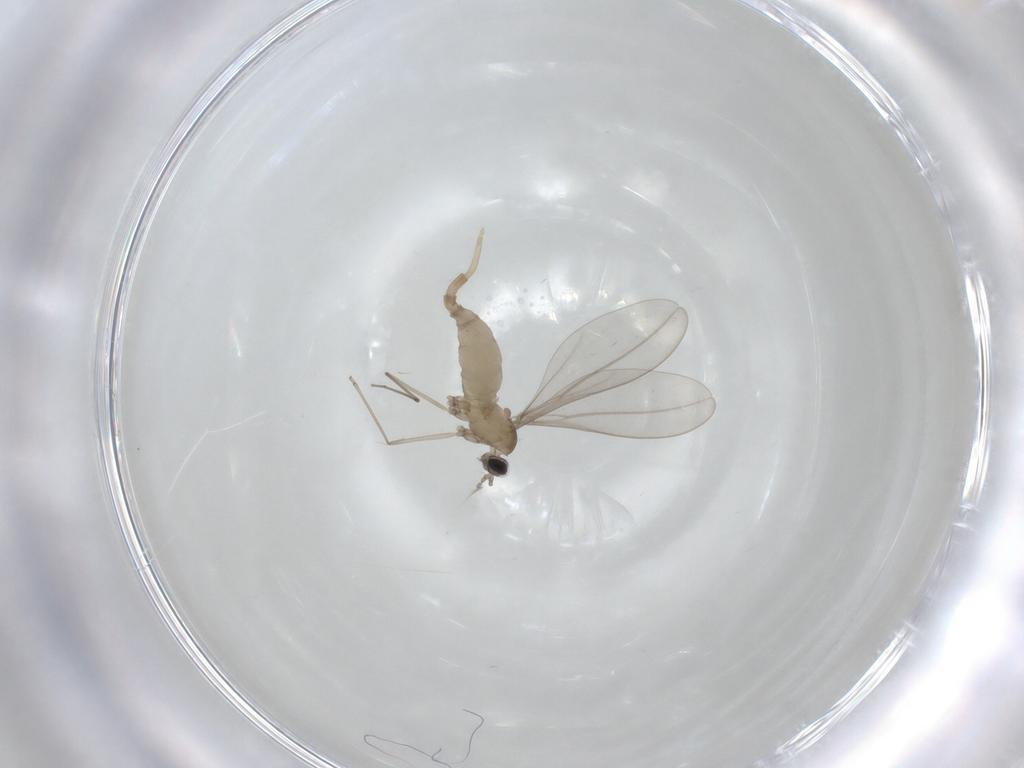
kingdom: Animalia
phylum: Arthropoda
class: Insecta
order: Diptera
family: Cecidomyiidae
